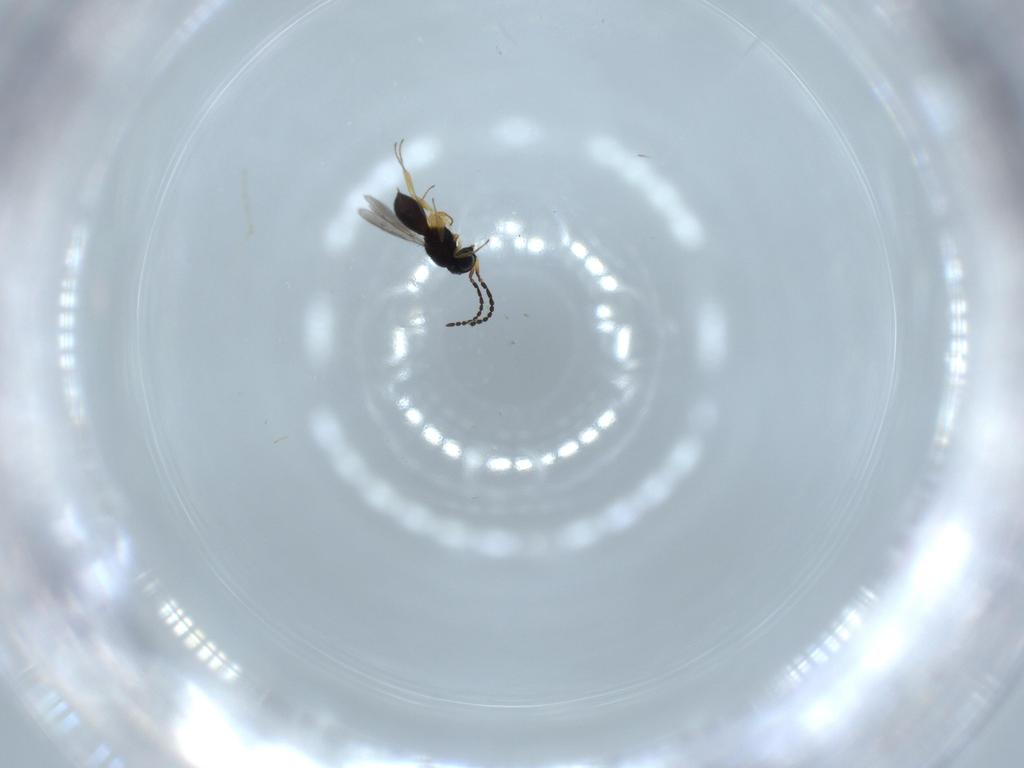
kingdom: Animalia
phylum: Arthropoda
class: Insecta
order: Hymenoptera
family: Scelionidae
